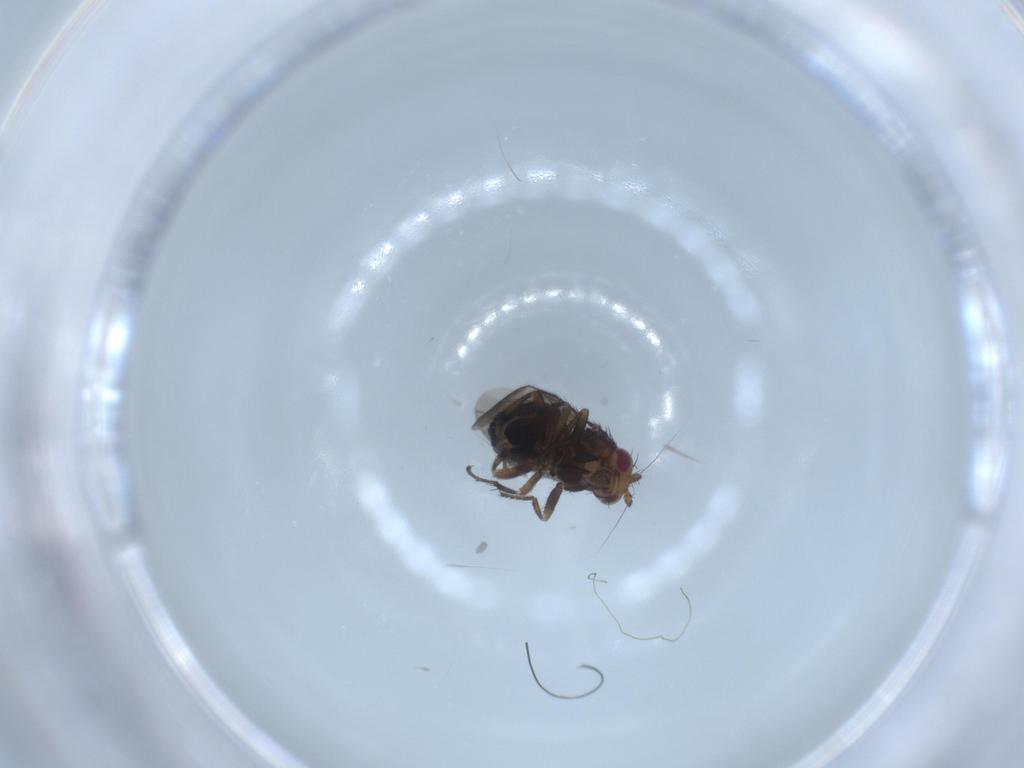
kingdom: Animalia
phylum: Arthropoda
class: Insecta
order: Diptera
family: Sphaeroceridae
